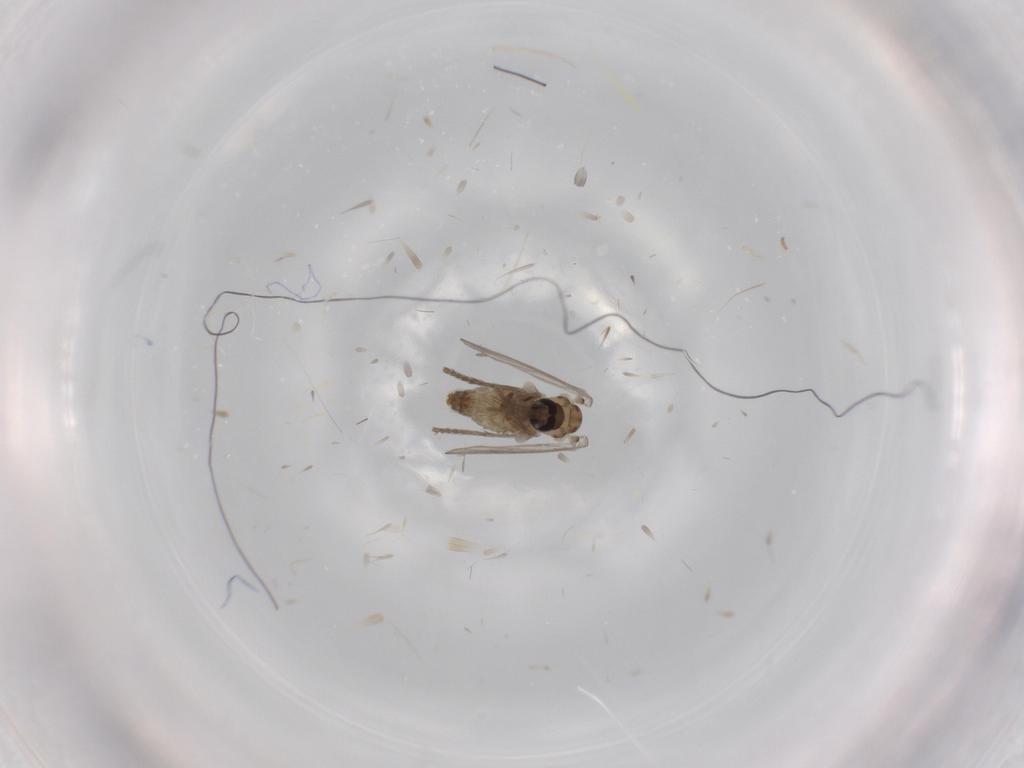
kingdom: Animalia
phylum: Arthropoda
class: Insecta
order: Diptera
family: Psychodidae
